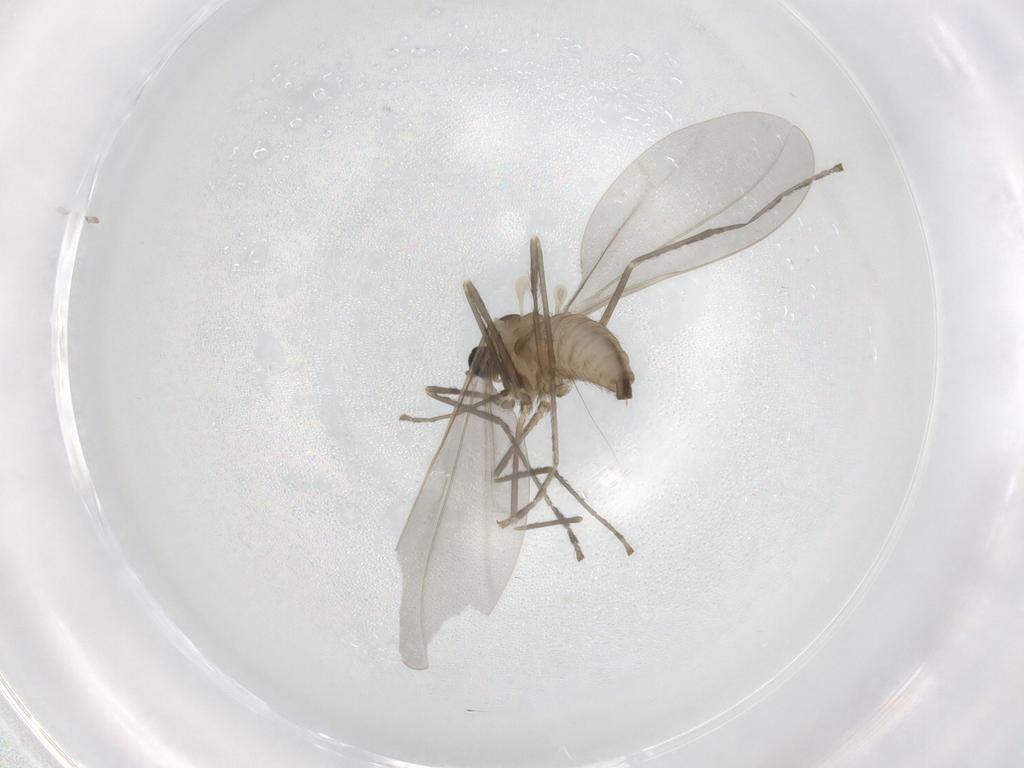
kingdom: Animalia
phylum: Arthropoda
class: Insecta
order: Diptera
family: Cecidomyiidae
